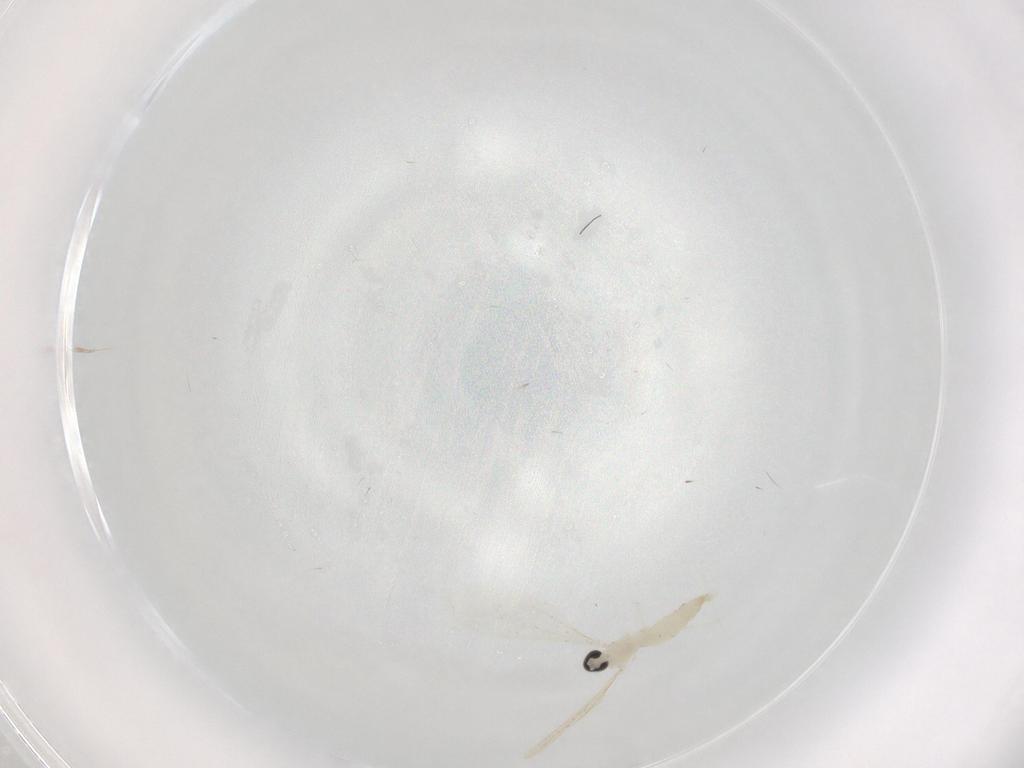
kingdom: Animalia
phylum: Arthropoda
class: Insecta
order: Diptera
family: Cecidomyiidae
